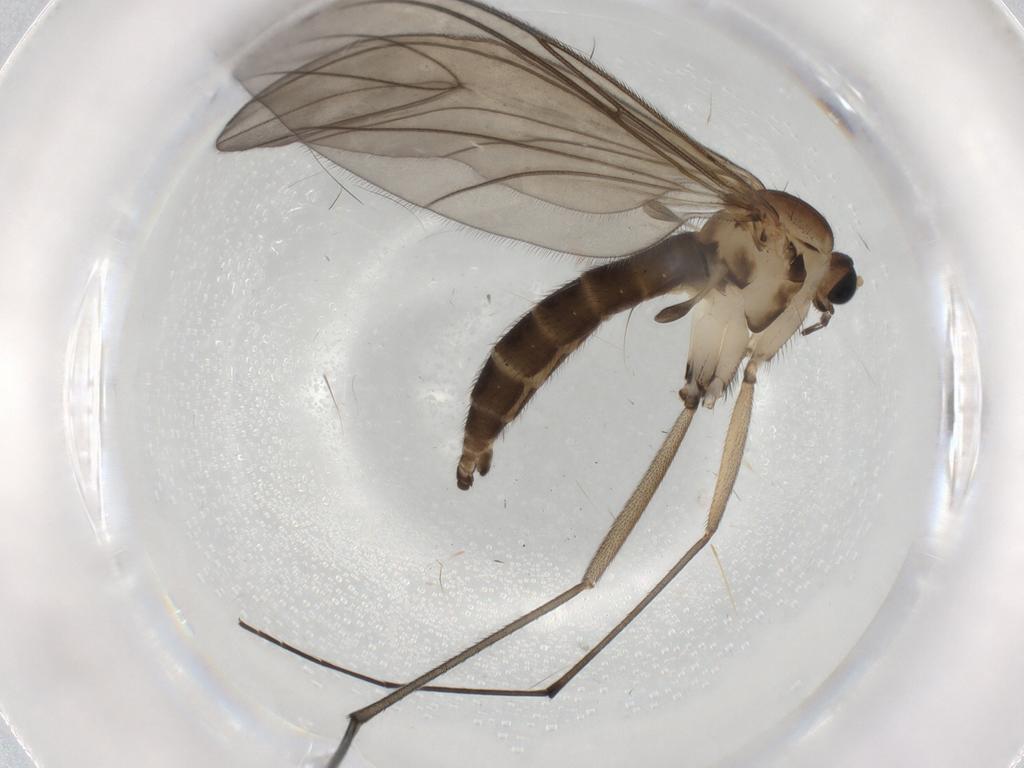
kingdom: Animalia
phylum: Arthropoda
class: Insecta
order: Diptera
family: Sciaridae
